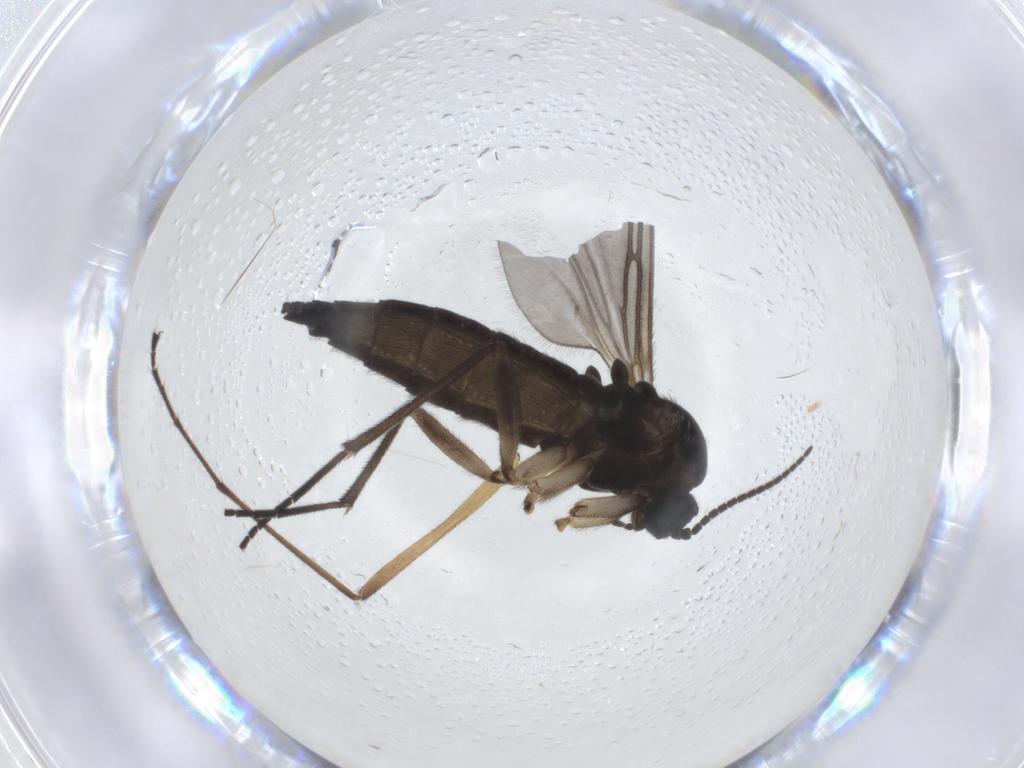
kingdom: Animalia
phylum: Arthropoda
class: Insecta
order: Diptera
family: Sciaridae
